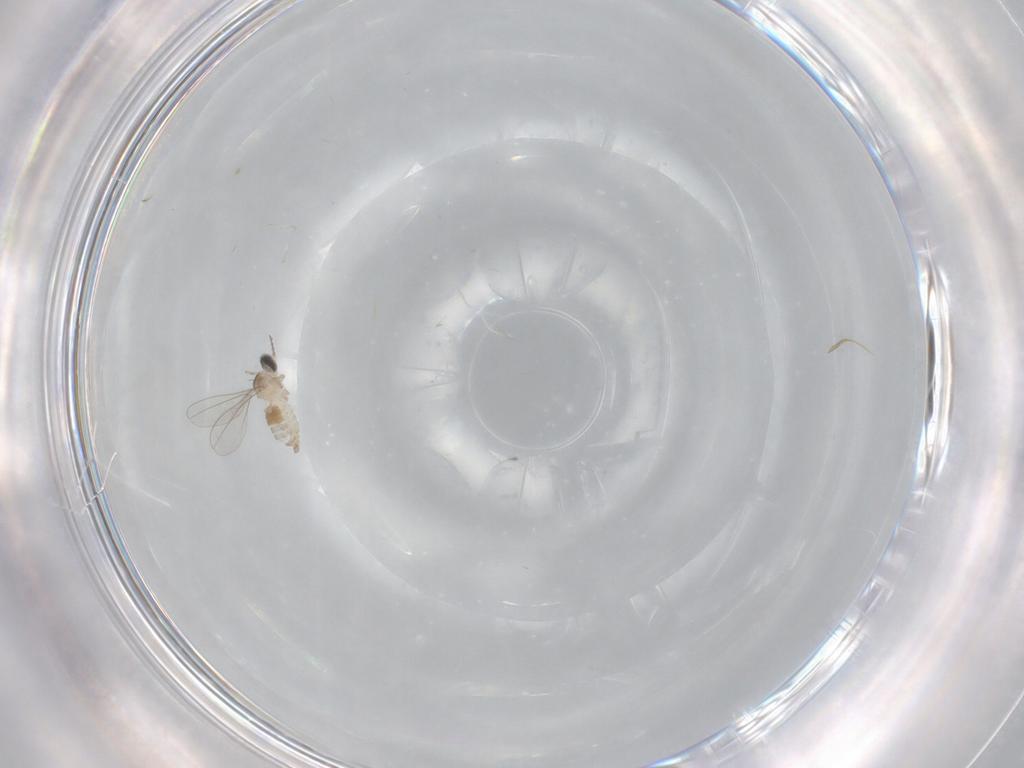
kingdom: Animalia
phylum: Arthropoda
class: Insecta
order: Diptera
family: Cecidomyiidae
